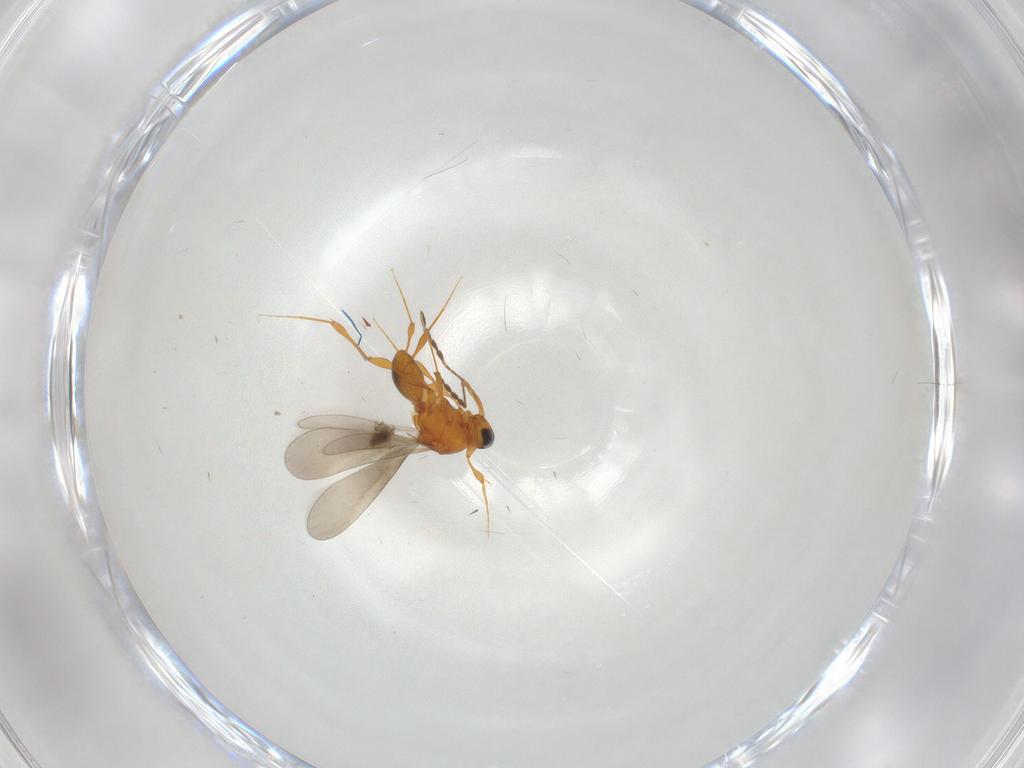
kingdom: Animalia
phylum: Arthropoda
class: Insecta
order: Hymenoptera
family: Platygastridae
